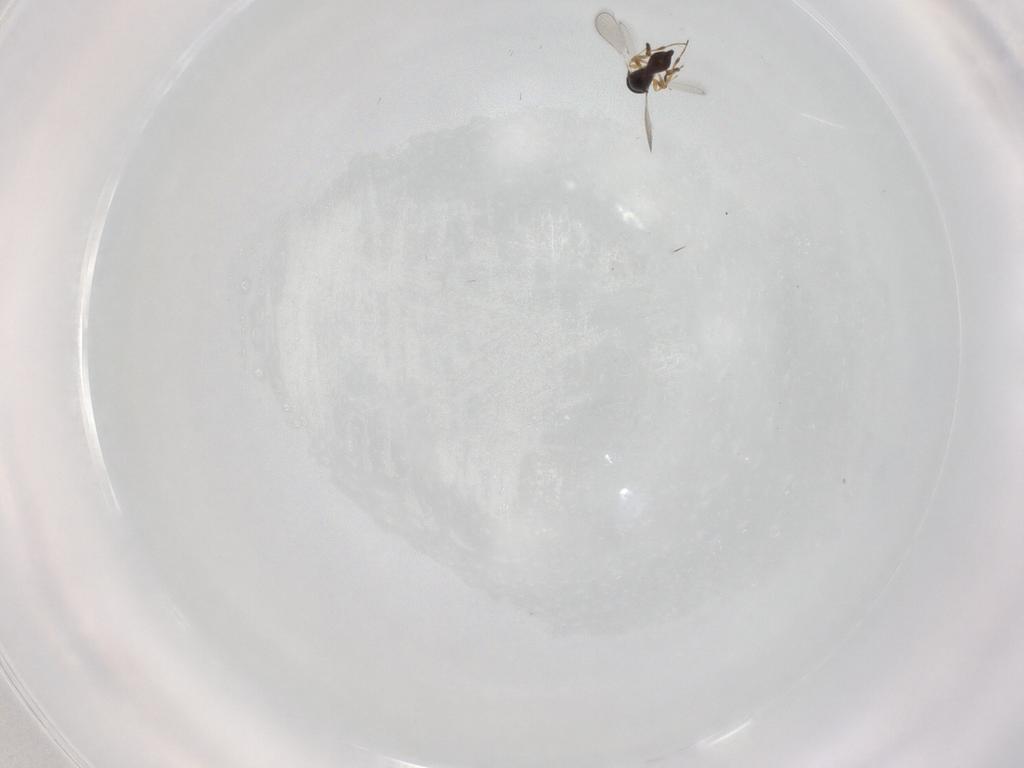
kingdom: Animalia
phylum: Arthropoda
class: Insecta
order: Hymenoptera
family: Platygastridae
